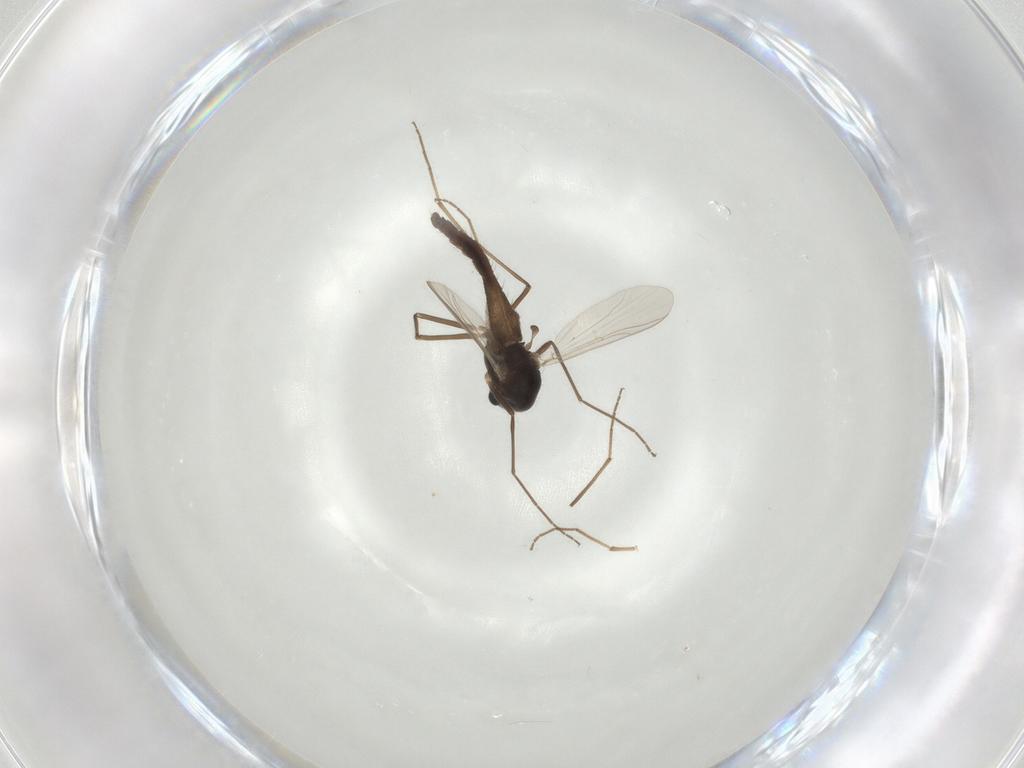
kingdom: Animalia
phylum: Arthropoda
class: Insecta
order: Diptera
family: Chironomidae
